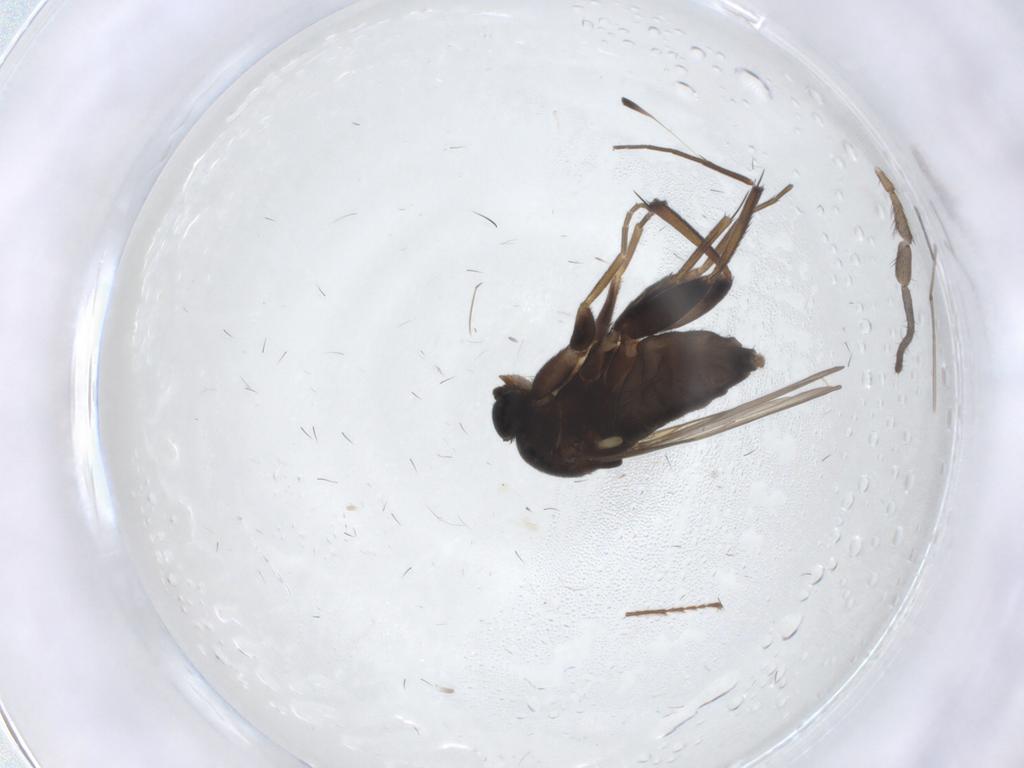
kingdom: Animalia
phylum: Arthropoda
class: Insecta
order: Diptera
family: Phoridae
